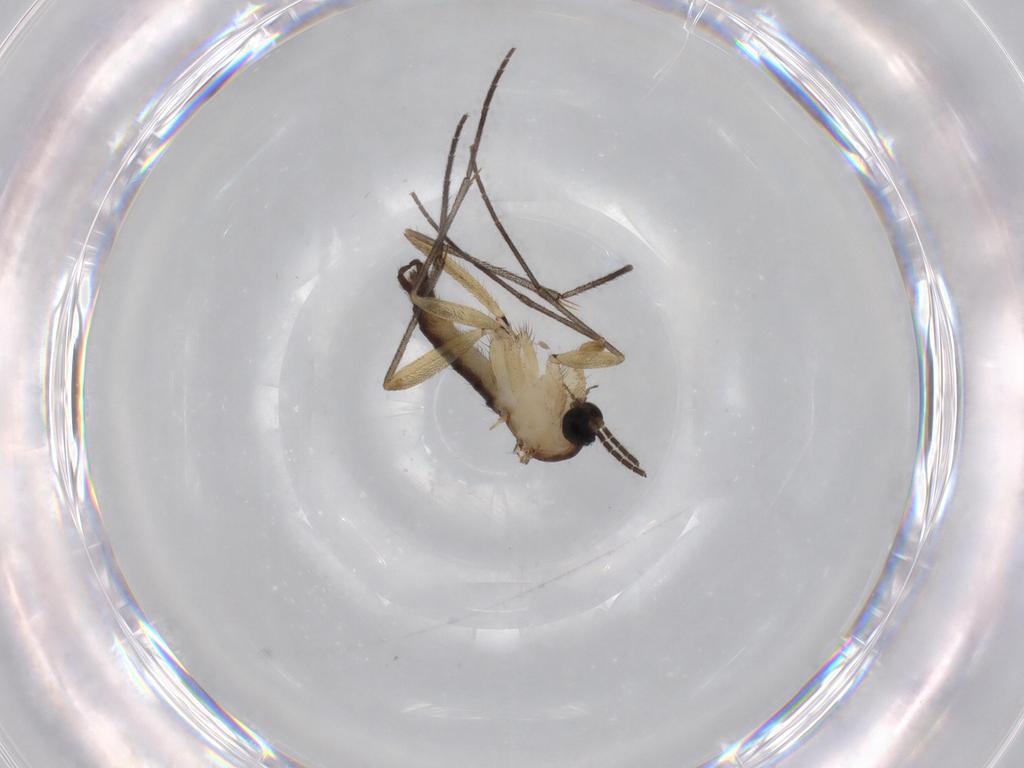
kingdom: Animalia
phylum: Arthropoda
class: Insecta
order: Diptera
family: Sciaridae
